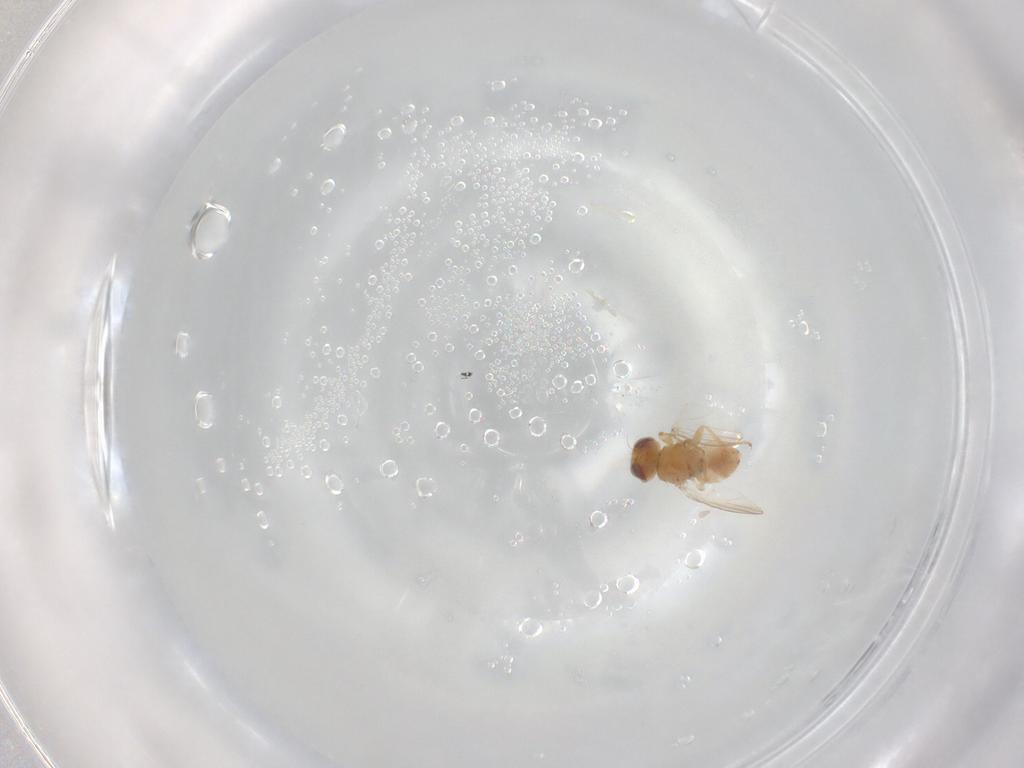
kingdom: Animalia
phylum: Arthropoda
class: Insecta
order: Diptera
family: Chyromyidae
